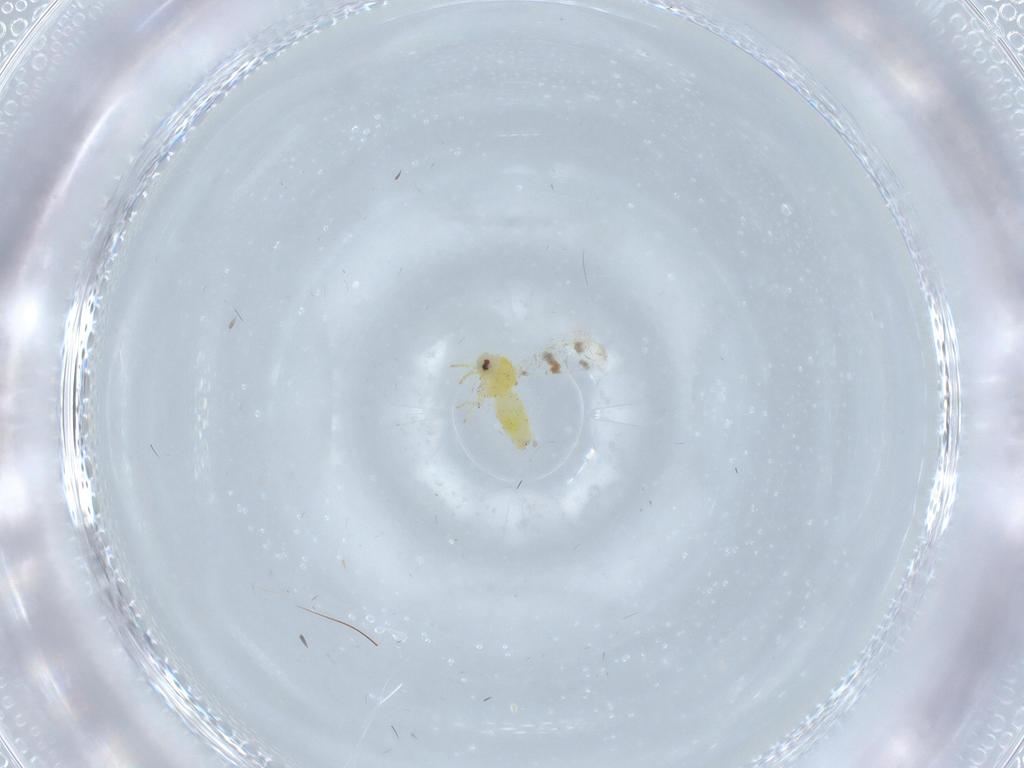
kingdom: Animalia
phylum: Arthropoda
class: Insecta
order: Hemiptera
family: Aleyrodidae
